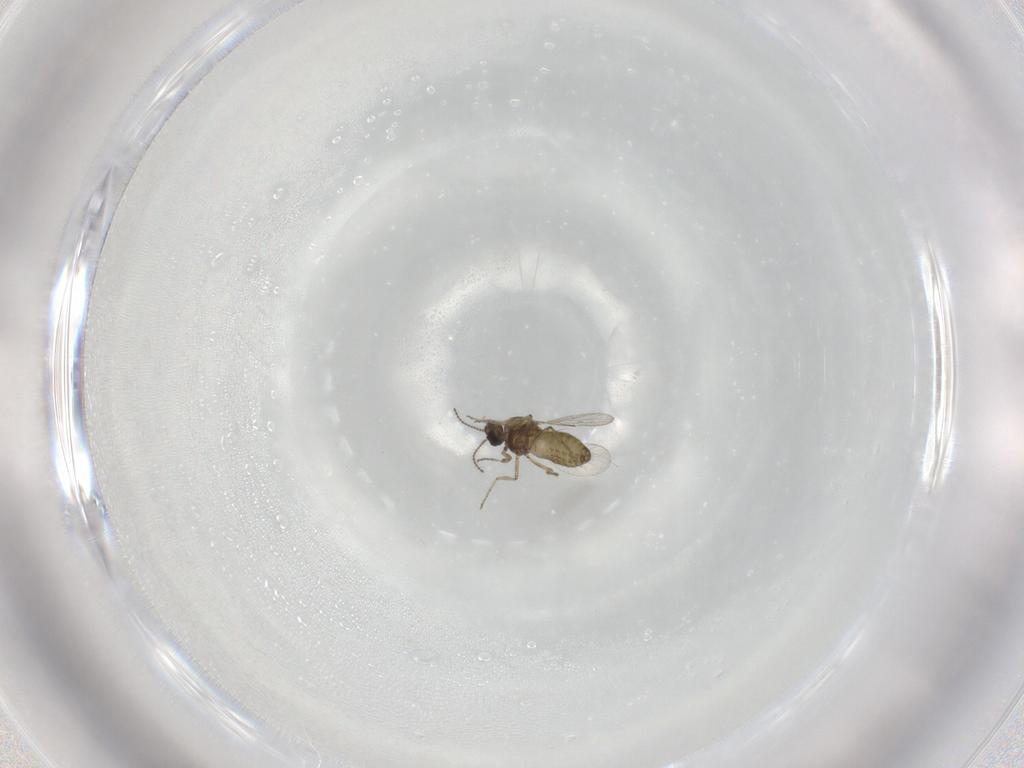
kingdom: Animalia
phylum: Arthropoda
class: Insecta
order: Diptera
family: Ceratopogonidae
